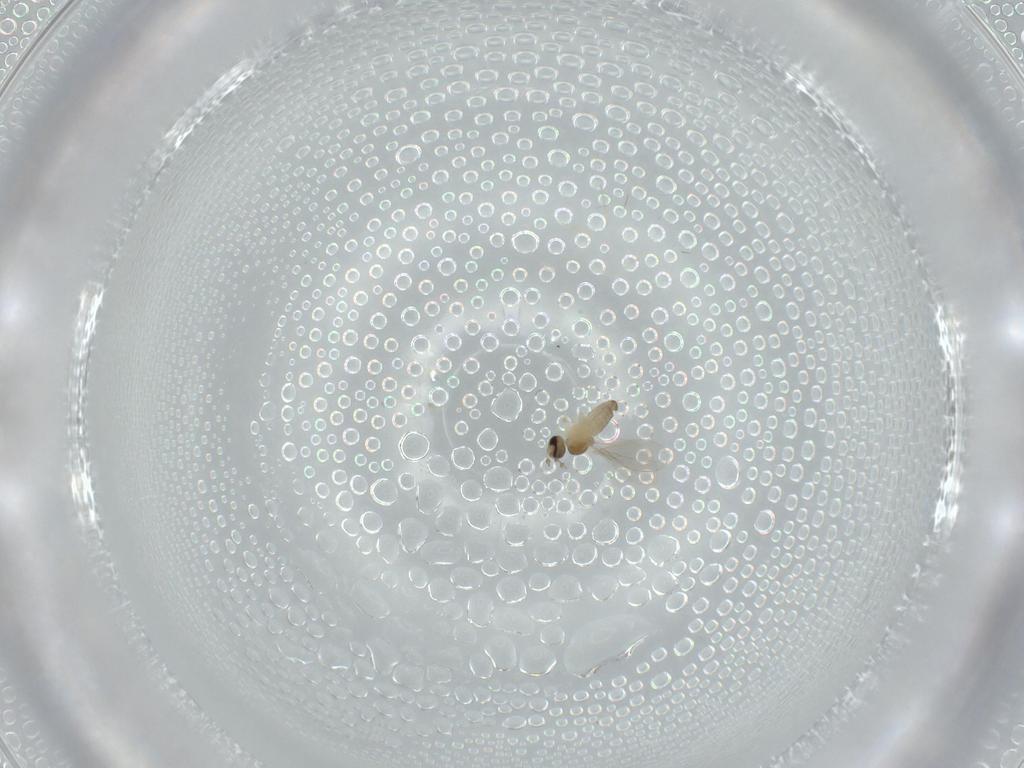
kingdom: Animalia
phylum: Arthropoda
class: Insecta
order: Diptera
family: Cecidomyiidae
